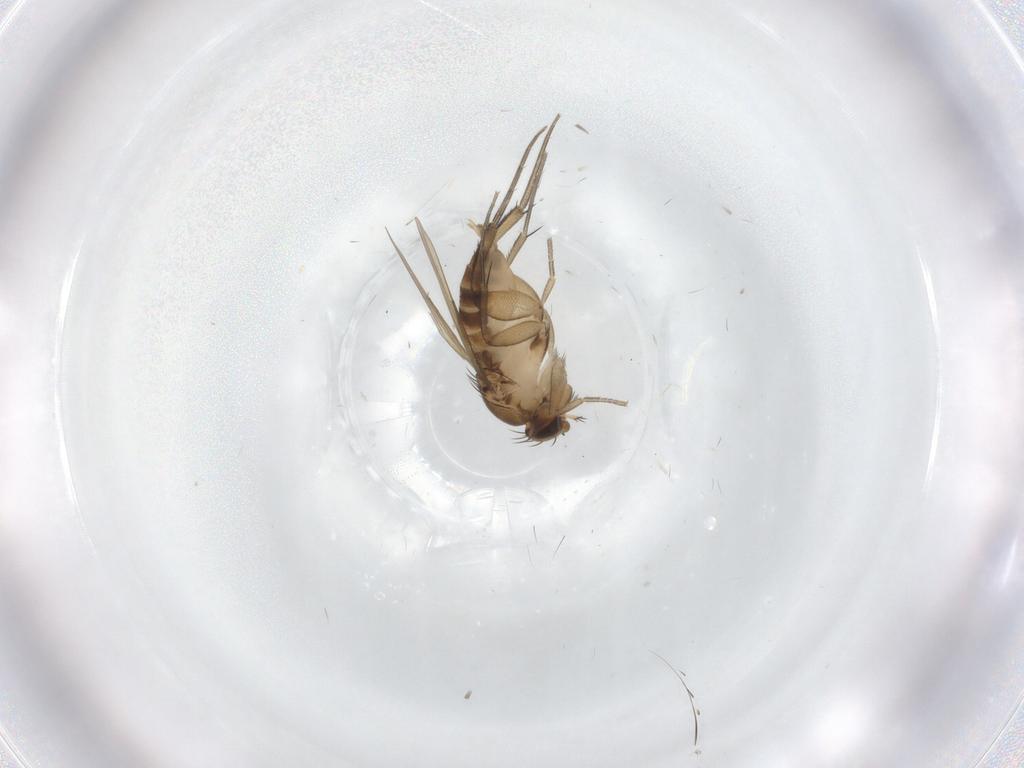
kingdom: Animalia
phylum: Arthropoda
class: Insecta
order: Diptera
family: Phoridae
